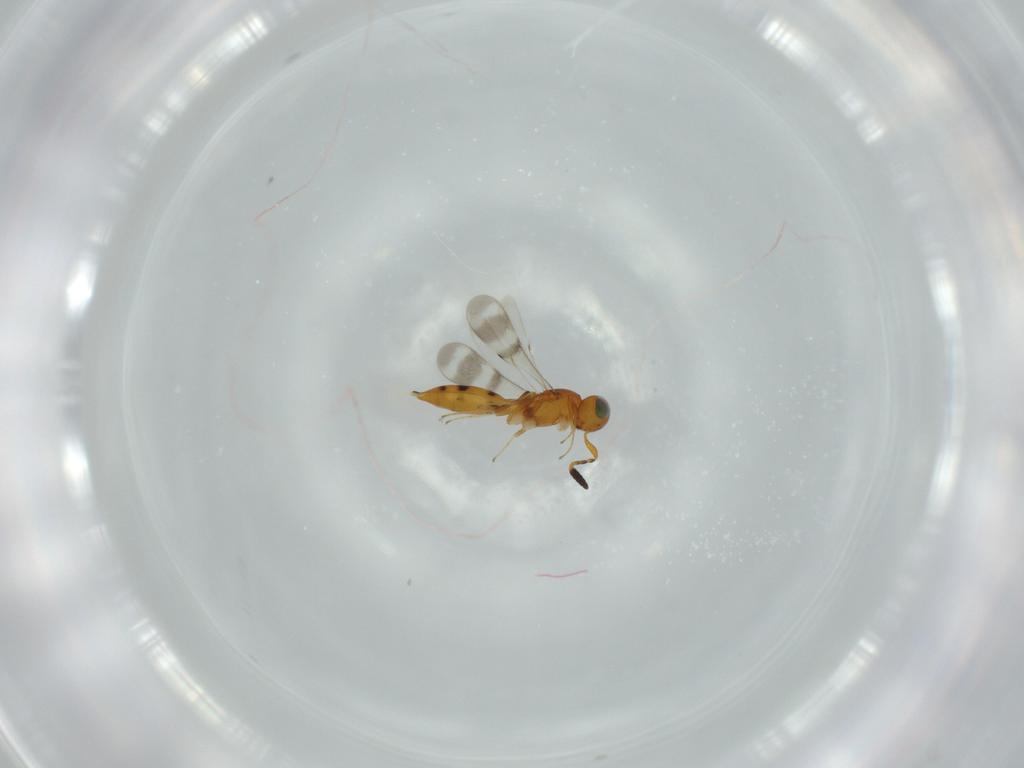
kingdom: Animalia
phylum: Arthropoda
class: Insecta
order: Hymenoptera
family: Scelionidae
